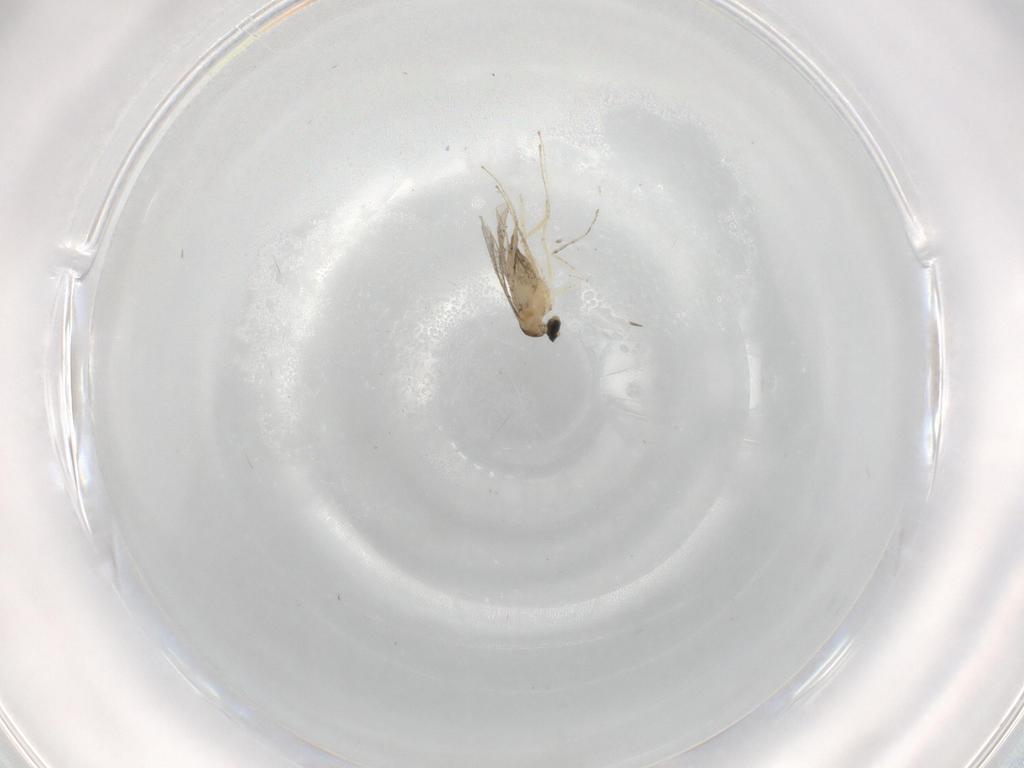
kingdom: Animalia
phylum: Arthropoda
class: Insecta
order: Diptera
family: Cecidomyiidae
